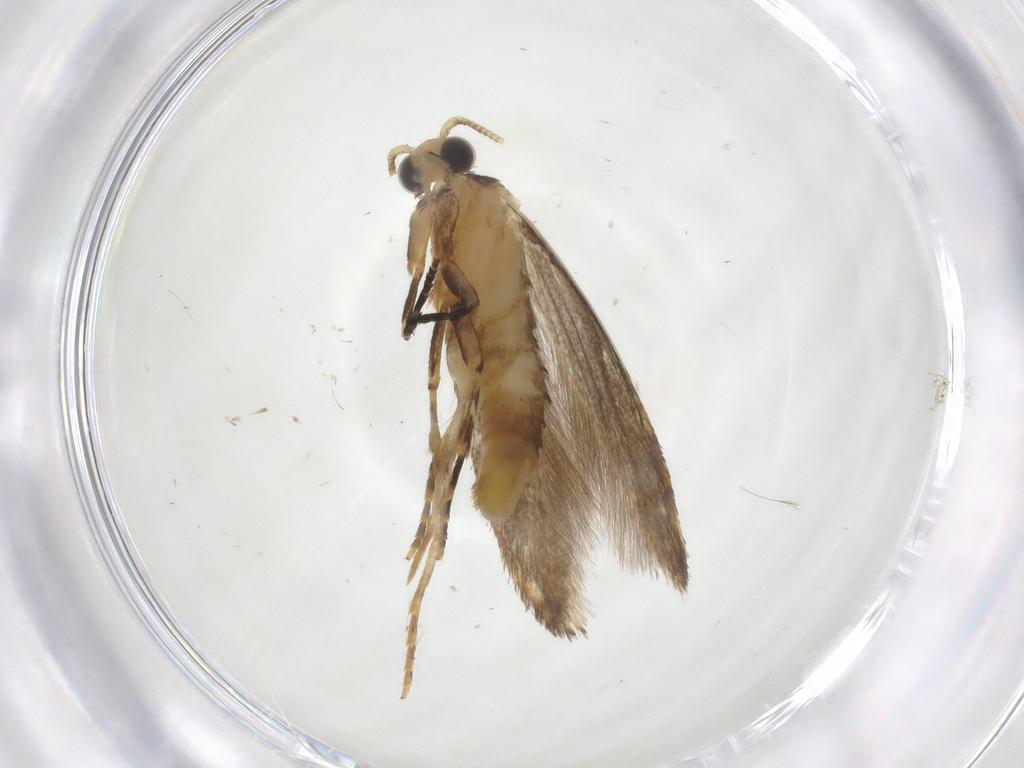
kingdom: Animalia
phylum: Arthropoda
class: Insecta
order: Lepidoptera
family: Tineidae
